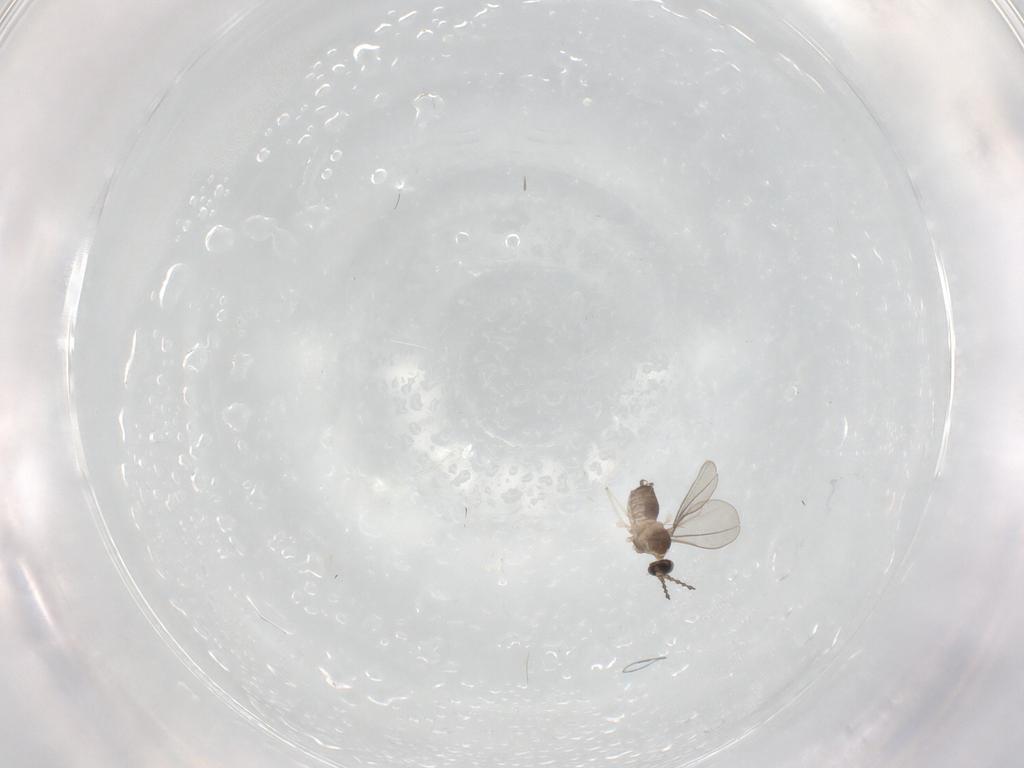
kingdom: Animalia
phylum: Arthropoda
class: Insecta
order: Diptera
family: Cecidomyiidae
